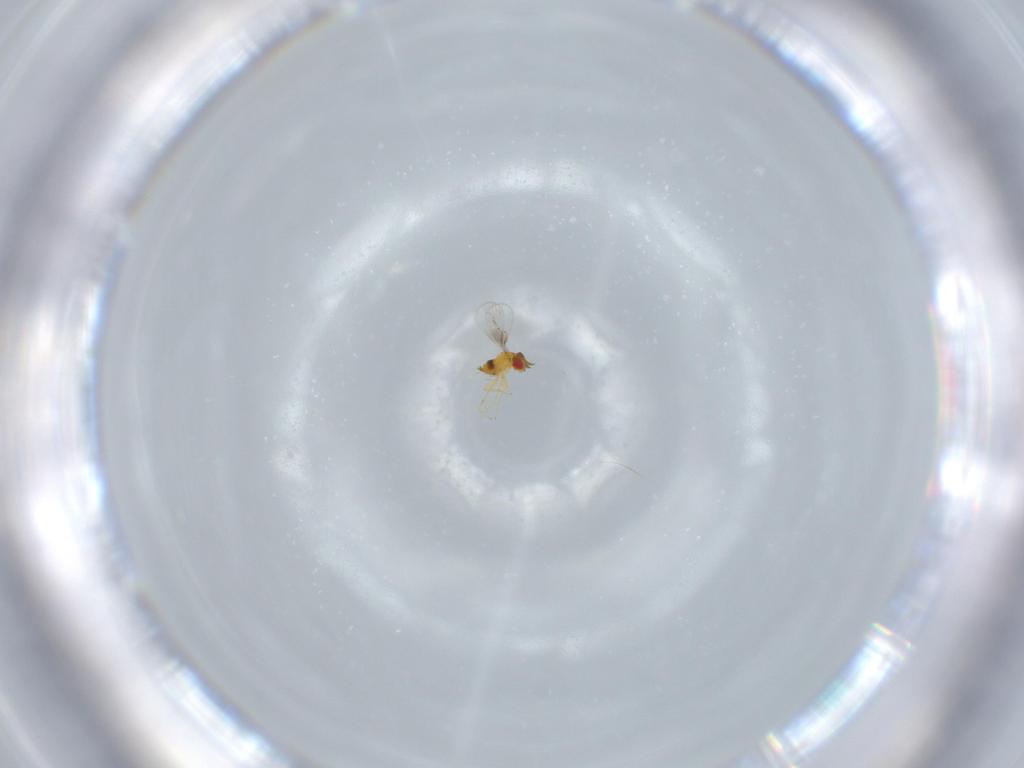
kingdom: Animalia
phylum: Arthropoda
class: Insecta
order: Hymenoptera
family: Trichogrammatidae
